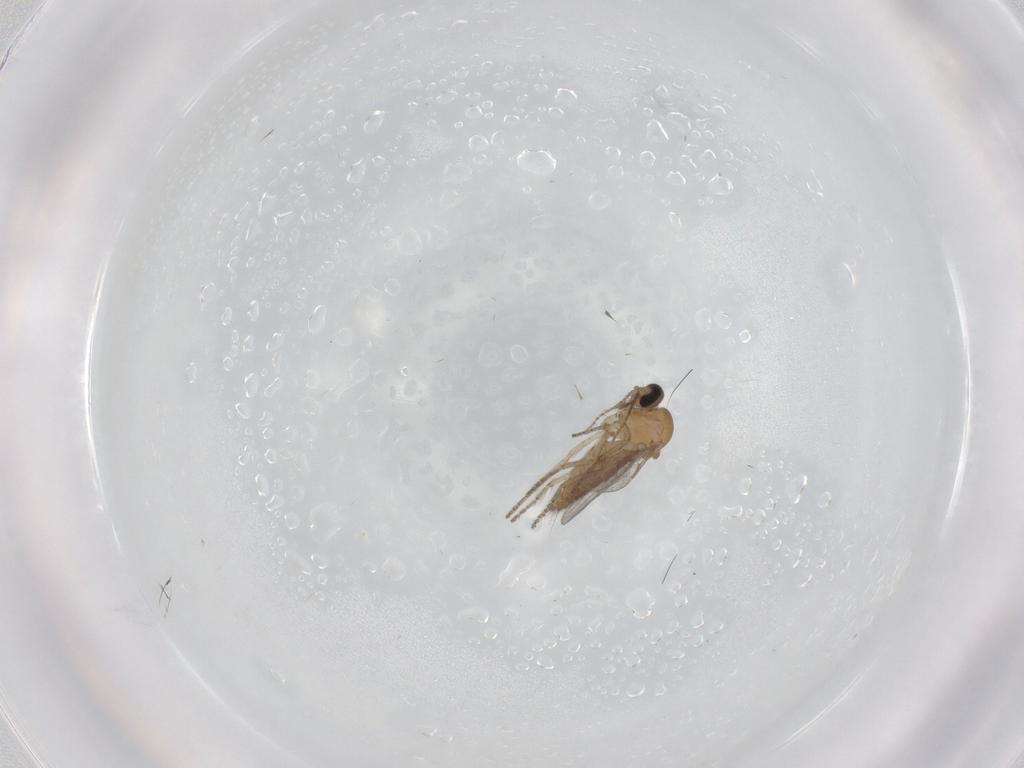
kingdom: Animalia
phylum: Arthropoda
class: Insecta
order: Diptera
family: Ceratopogonidae
